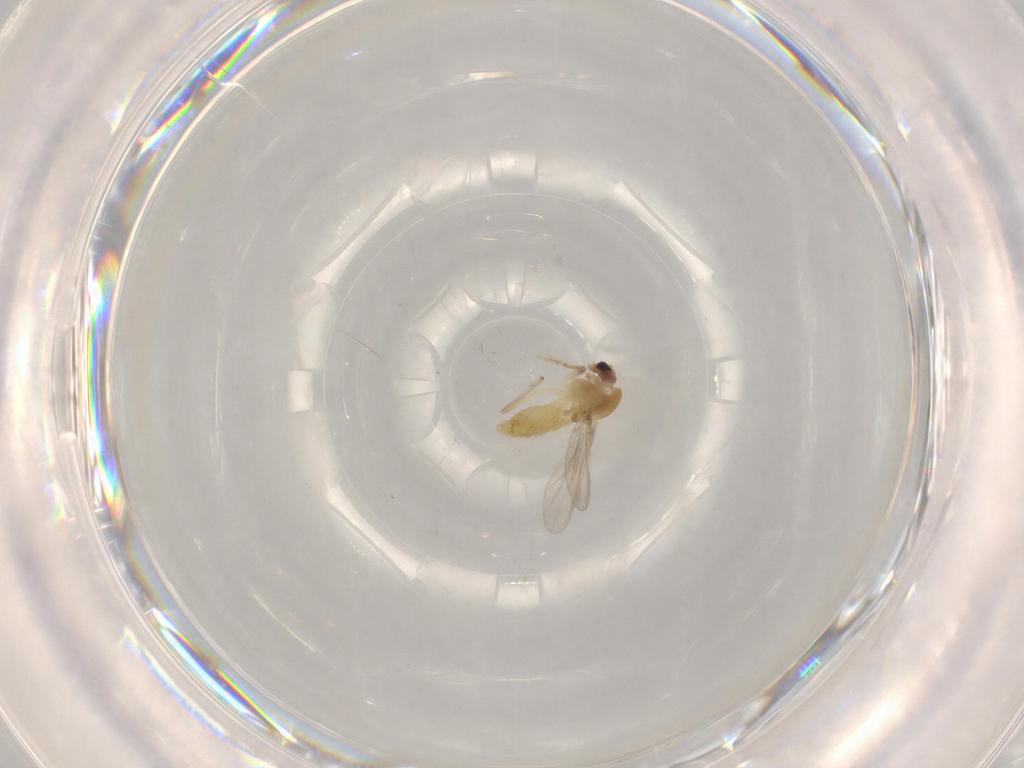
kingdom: Animalia
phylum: Arthropoda
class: Insecta
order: Diptera
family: Chironomidae
